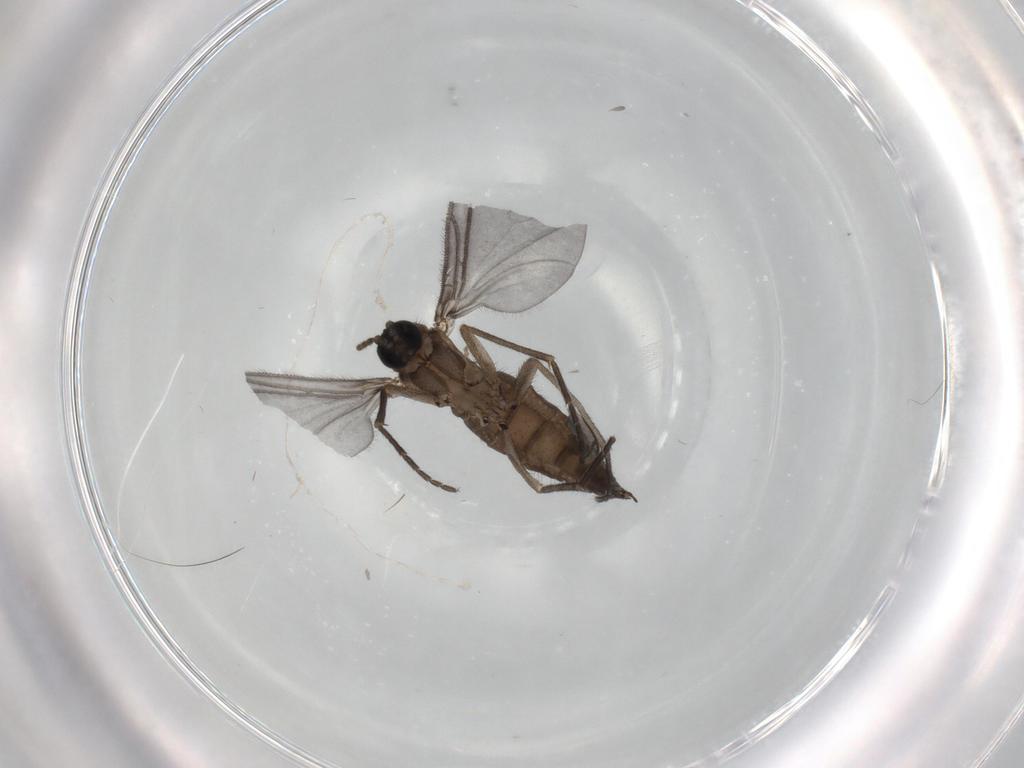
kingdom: Animalia
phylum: Arthropoda
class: Insecta
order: Diptera
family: Sciaridae
